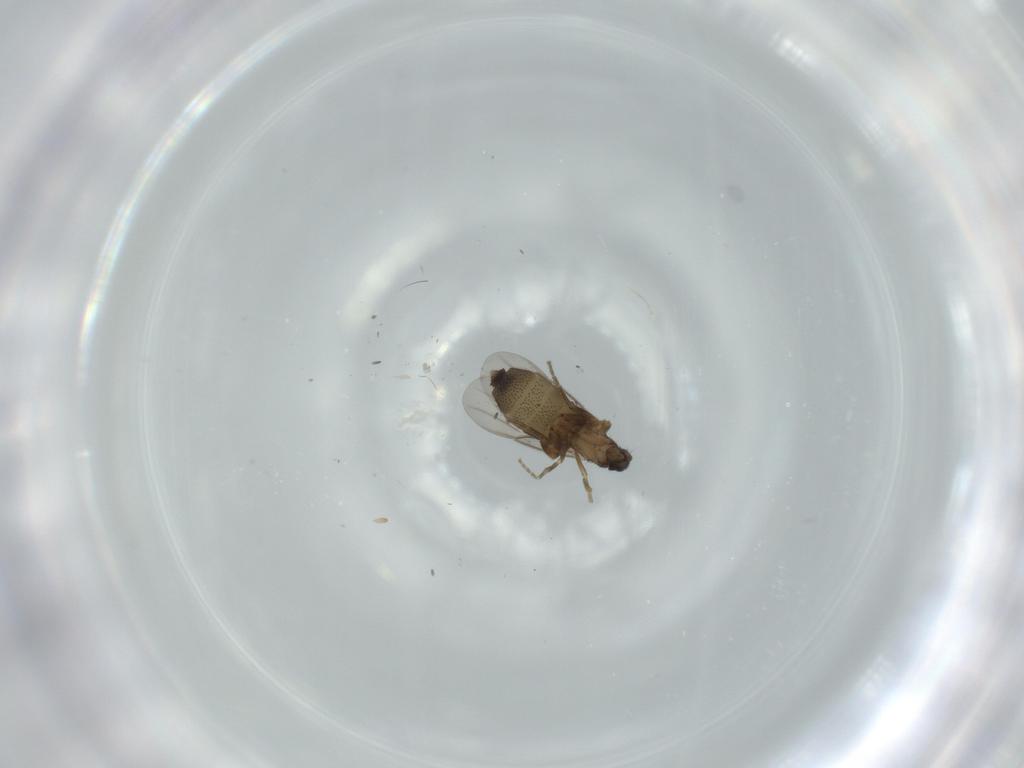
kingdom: Animalia
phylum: Arthropoda
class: Insecta
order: Diptera
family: Phoridae
